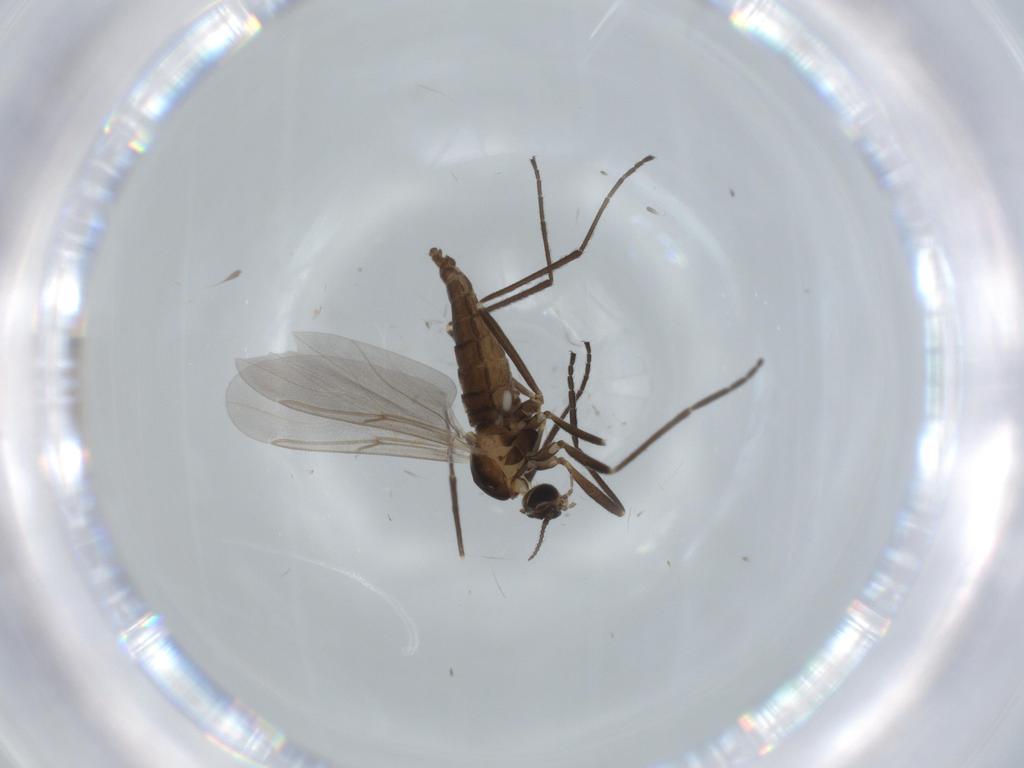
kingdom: Animalia
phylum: Arthropoda
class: Insecta
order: Diptera
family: Cecidomyiidae
